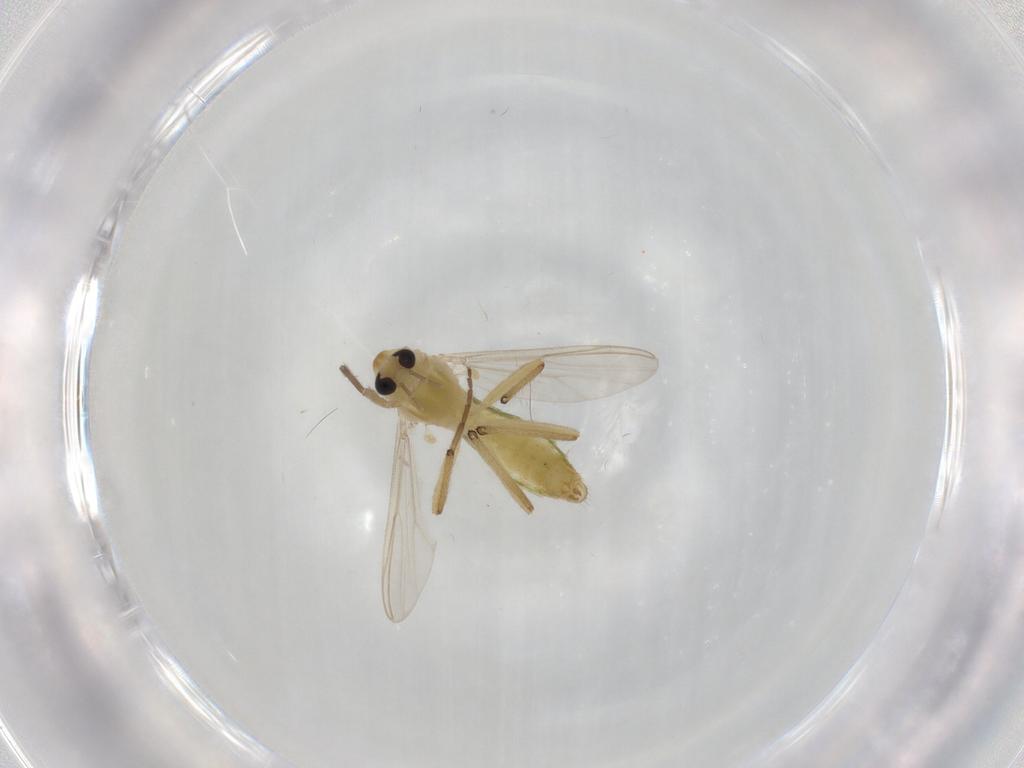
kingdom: Animalia
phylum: Arthropoda
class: Insecta
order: Diptera
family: Chironomidae
